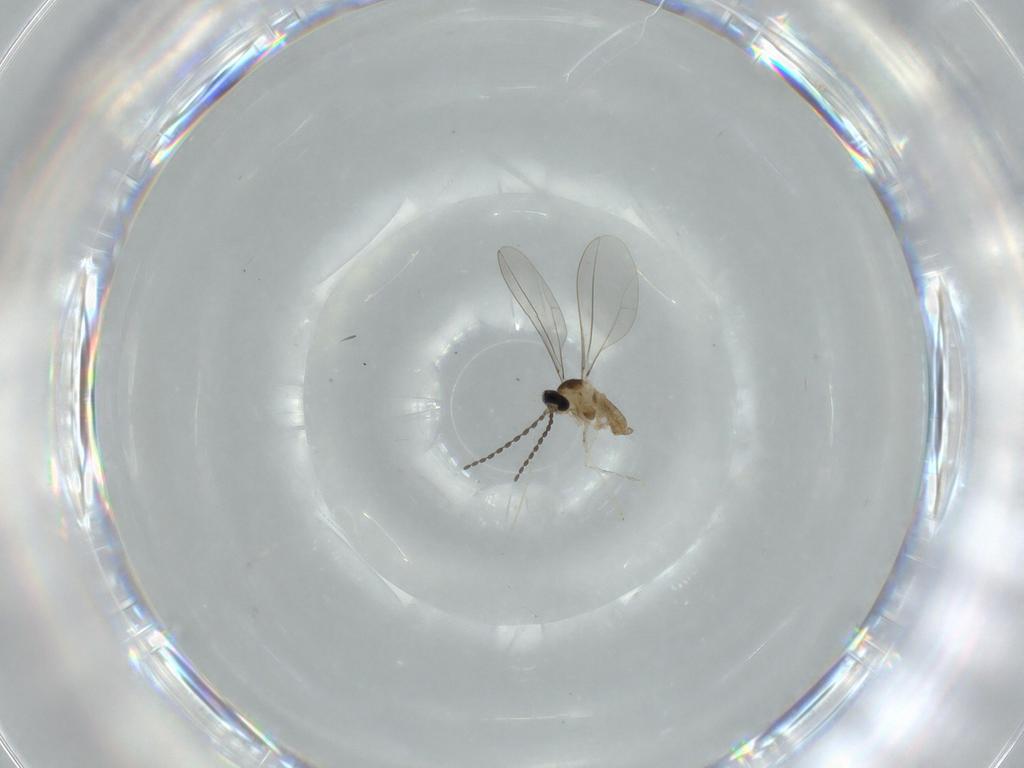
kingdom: Animalia
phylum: Arthropoda
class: Insecta
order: Diptera
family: Cecidomyiidae
